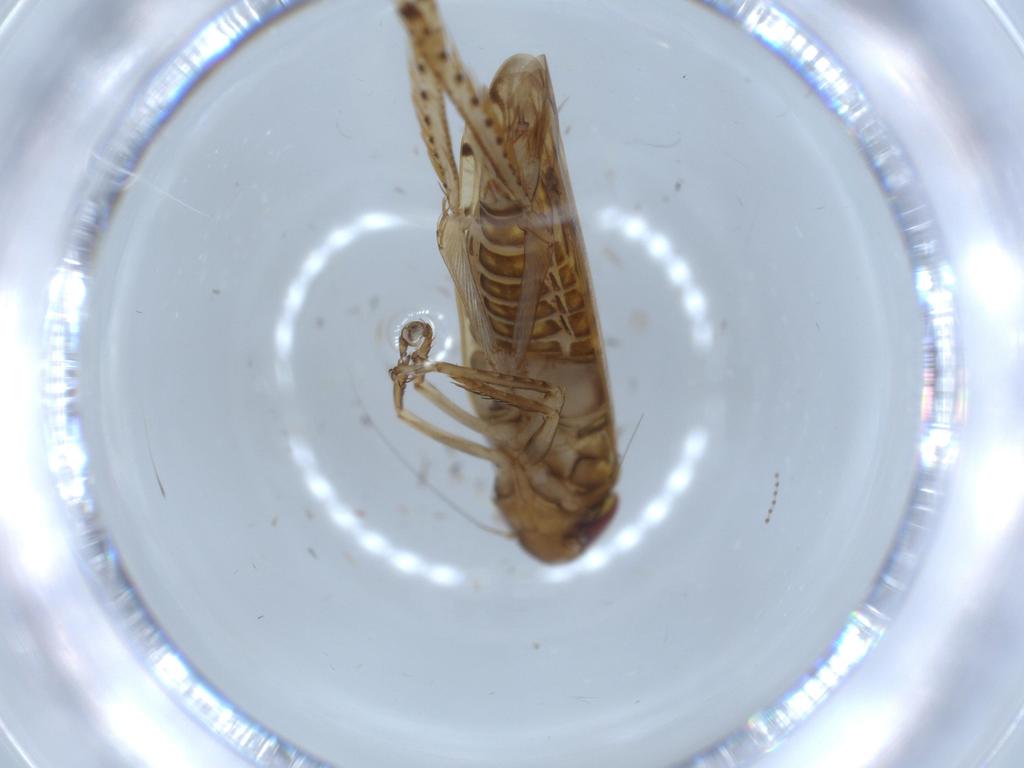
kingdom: Animalia
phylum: Arthropoda
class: Insecta
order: Hemiptera
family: Cicadellidae
